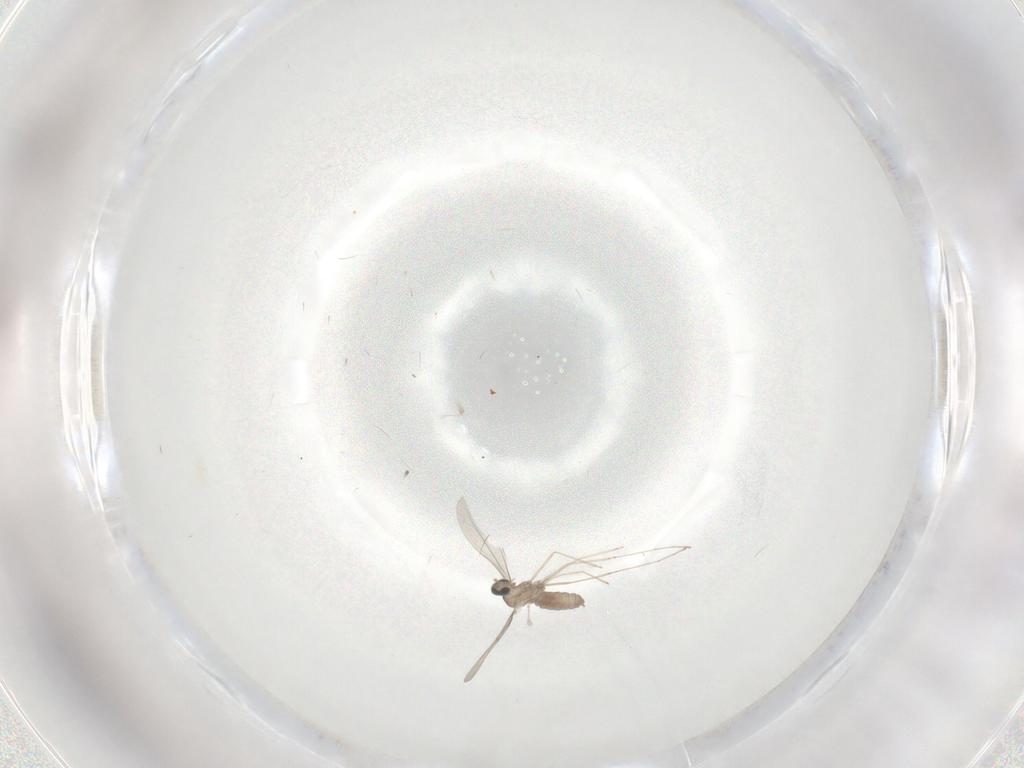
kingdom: Animalia
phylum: Arthropoda
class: Insecta
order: Diptera
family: Cecidomyiidae
